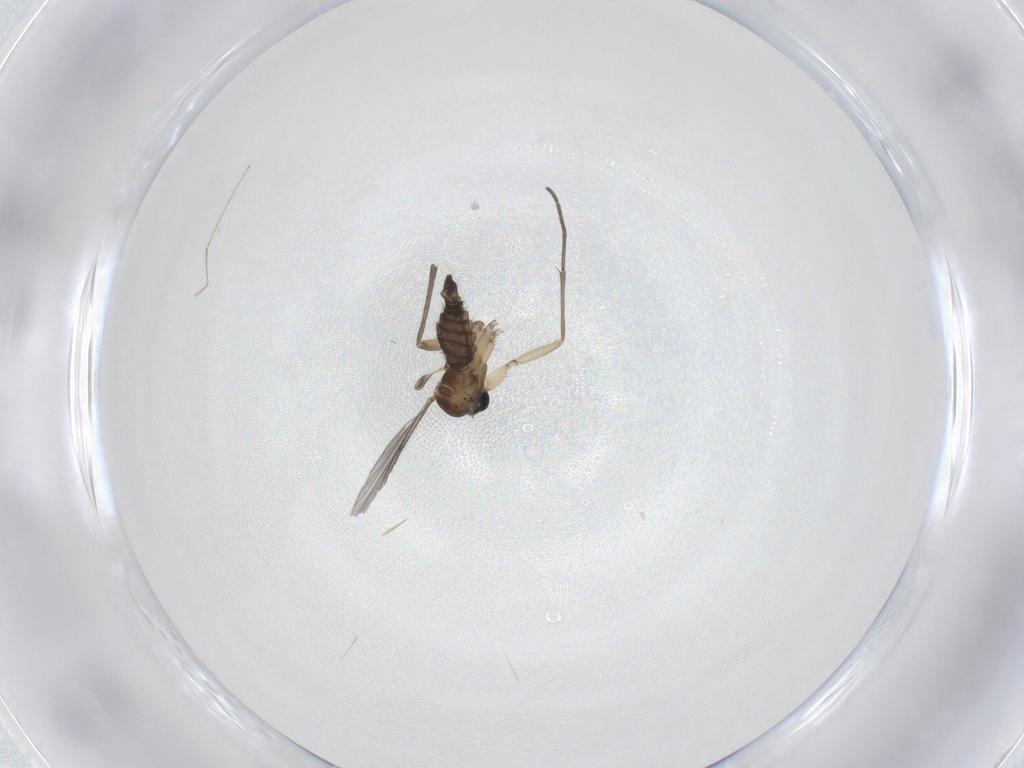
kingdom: Animalia
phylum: Arthropoda
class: Insecta
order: Diptera
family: Sciaridae
